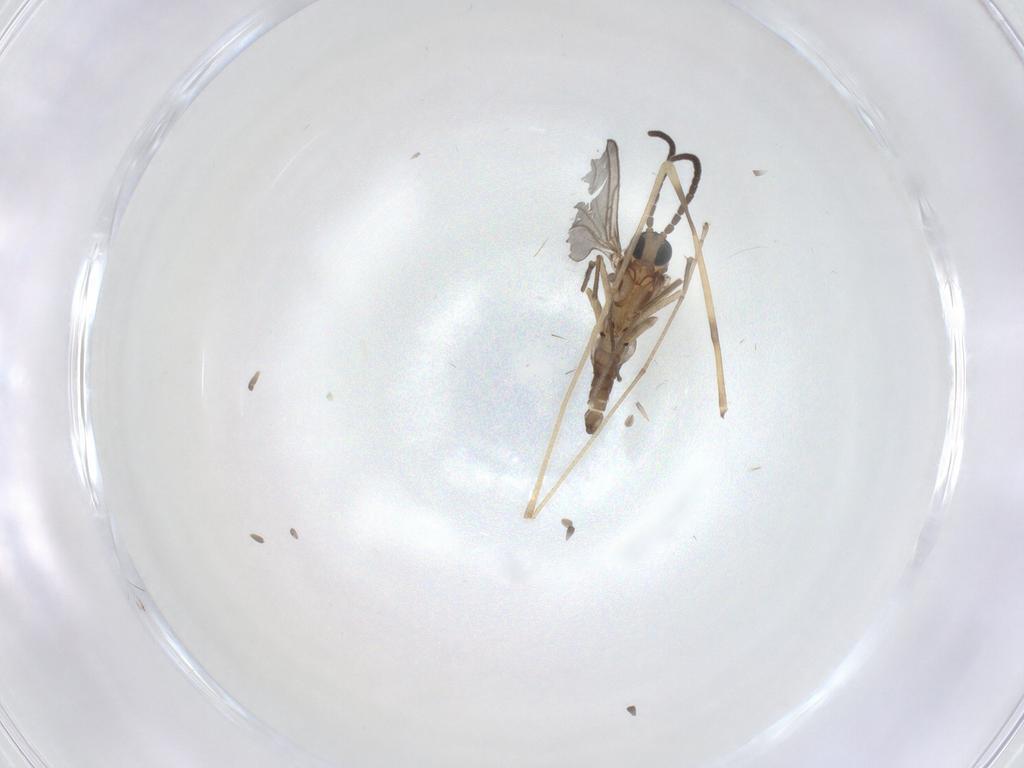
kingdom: Animalia
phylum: Arthropoda
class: Insecta
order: Diptera
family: Sciaridae
